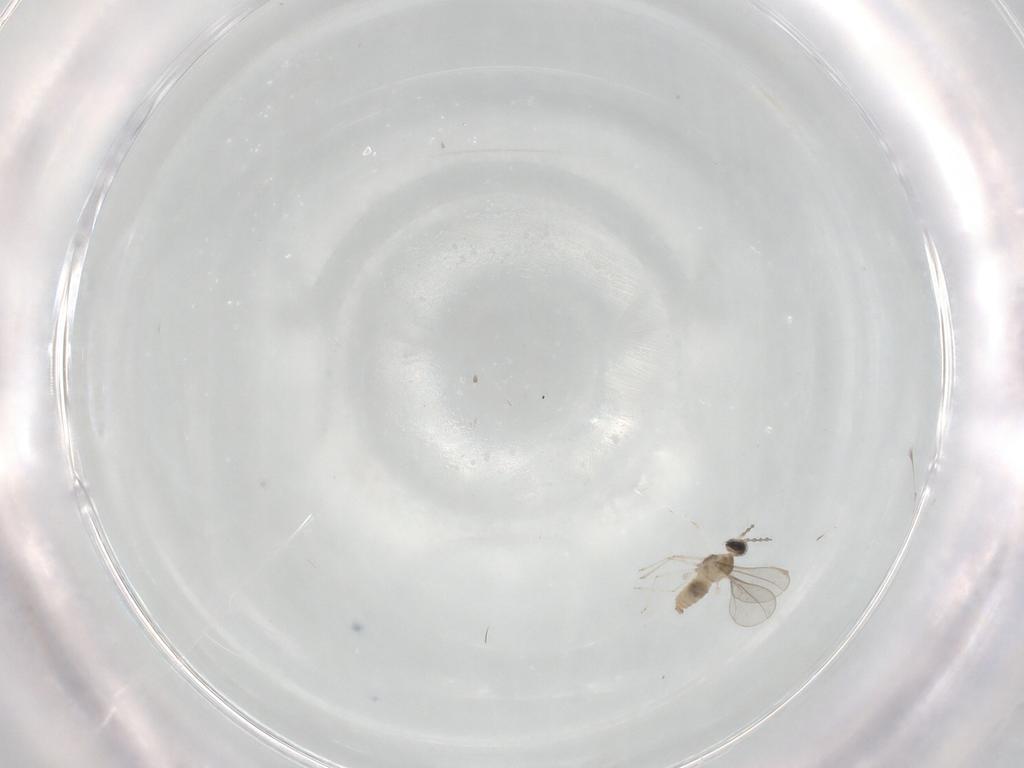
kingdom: Animalia
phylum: Arthropoda
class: Insecta
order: Diptera
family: Cecidomyiidae
